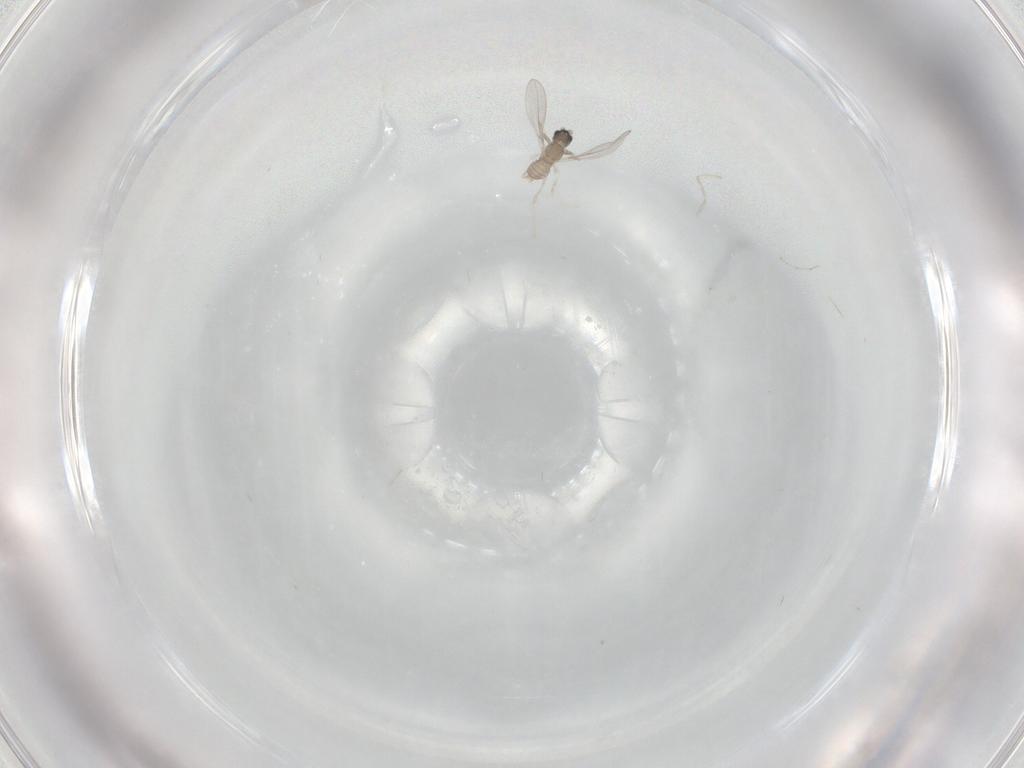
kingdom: Animalia
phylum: Arthropoda
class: Insecta
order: Diptera
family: Cecidomyiidae
